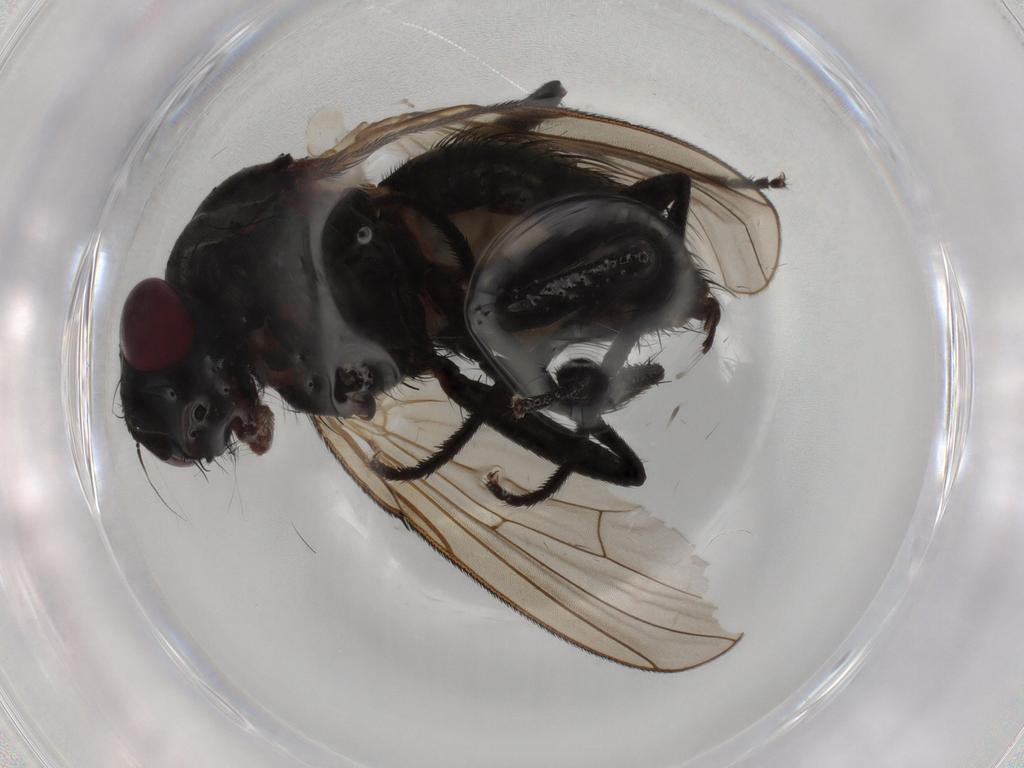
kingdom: Animalia
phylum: Arthropoda
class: Insecta
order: Diptera
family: Anthomyiidae
